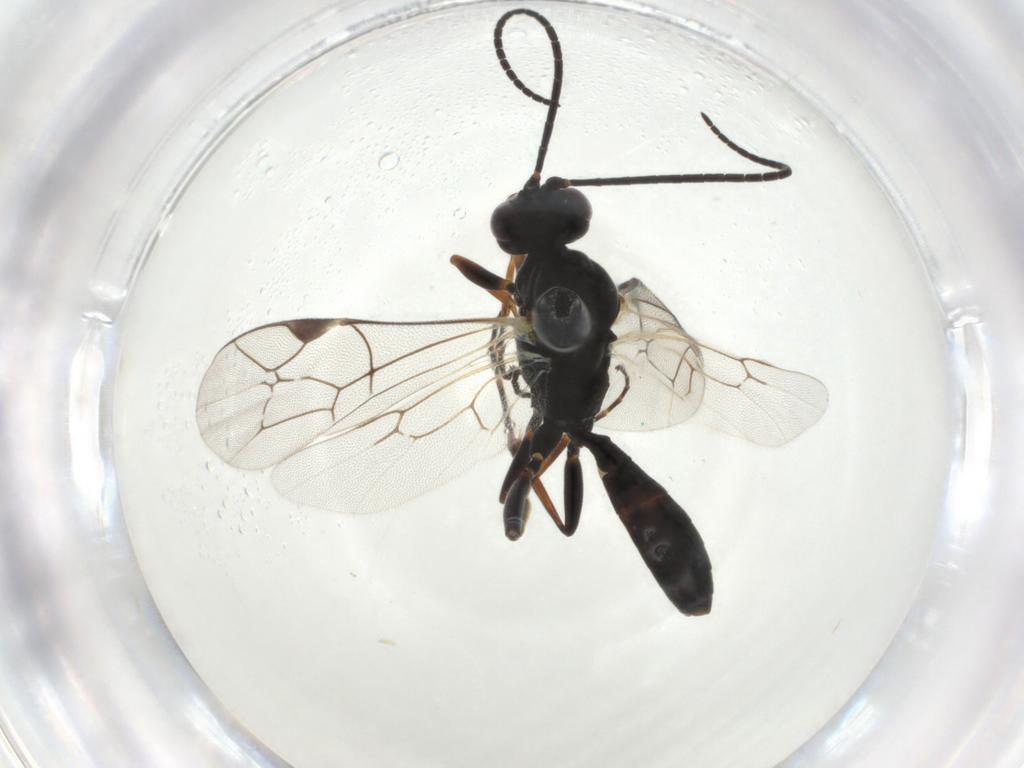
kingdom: Animalia
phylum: Arthropoda
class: Insecta
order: Hymenoptera
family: Ichneumonidae
